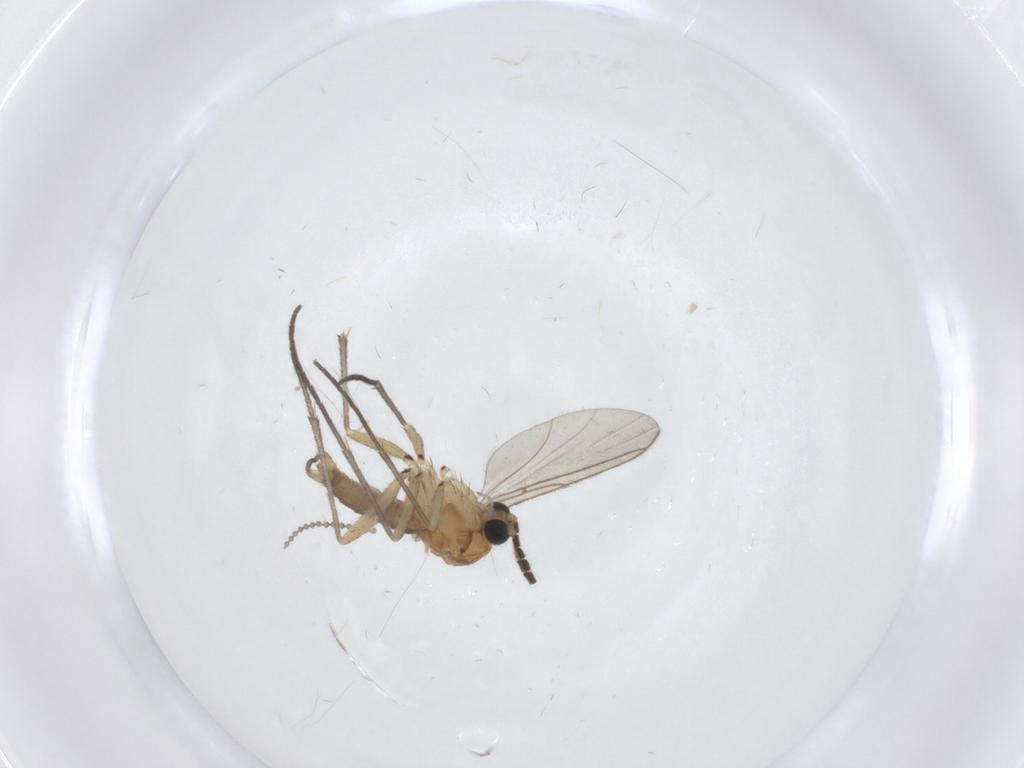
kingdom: Animalia
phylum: Arthropoda
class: Insecta
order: Diptera
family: Sciaridae
